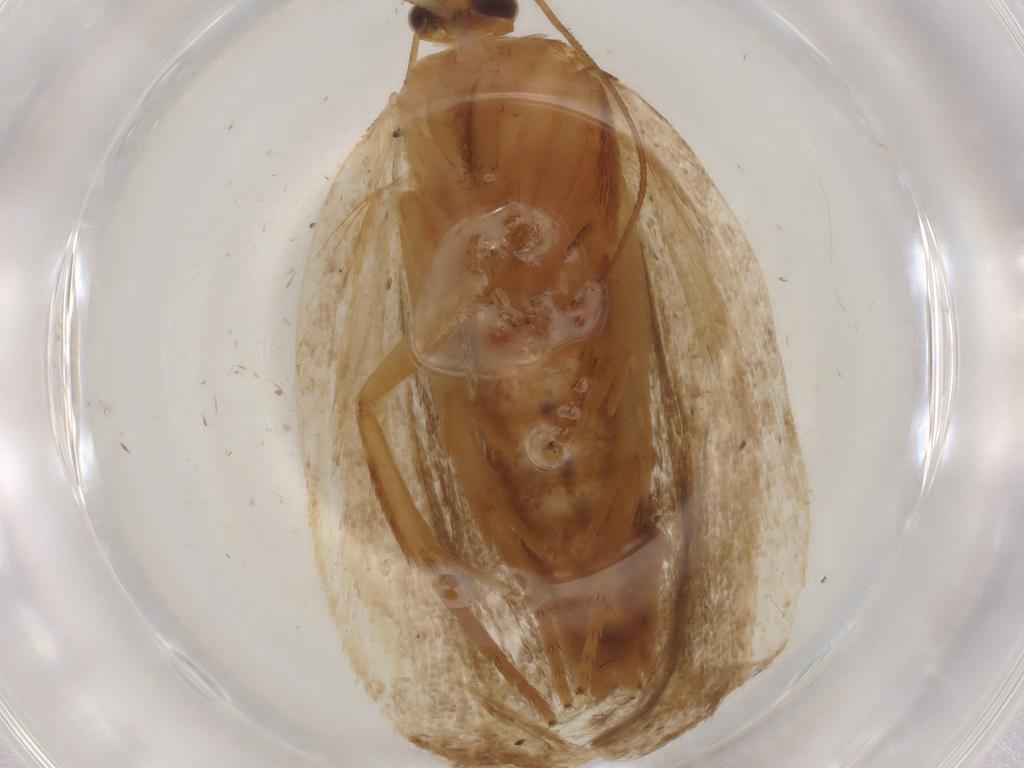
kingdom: Animalia
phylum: Arthropoda
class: Insecta
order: Lepidoptera
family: Tortricidae
